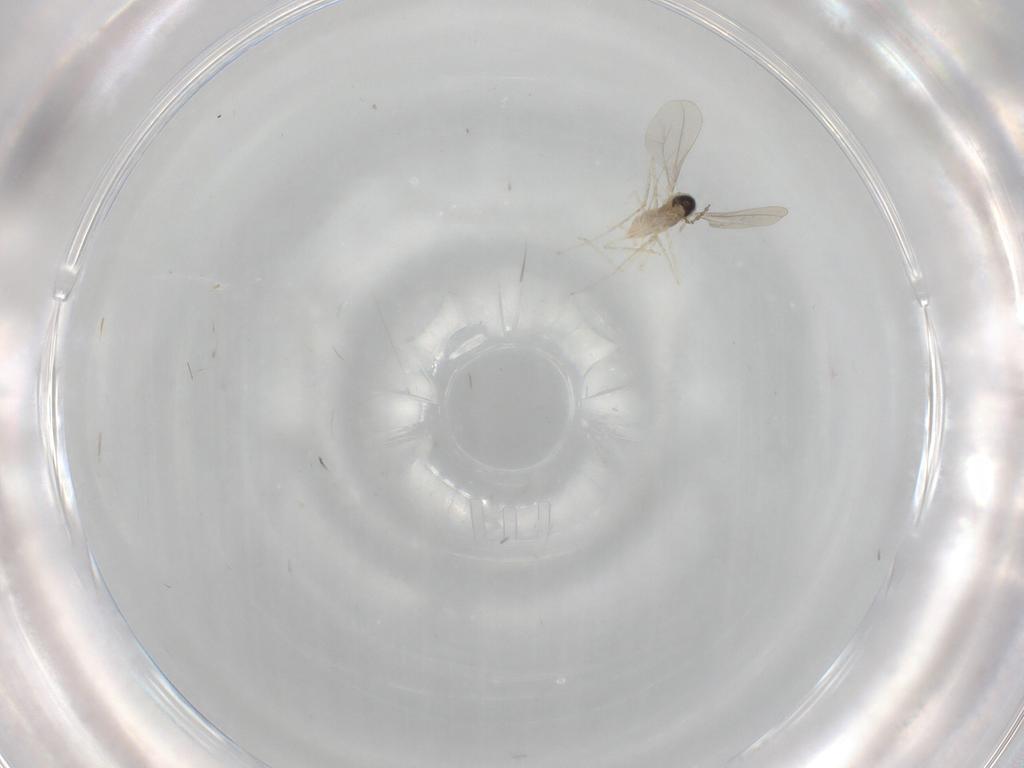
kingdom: Animalia
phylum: Arthropoda
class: Insecta
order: Diptera
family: Cecidomyiidae
